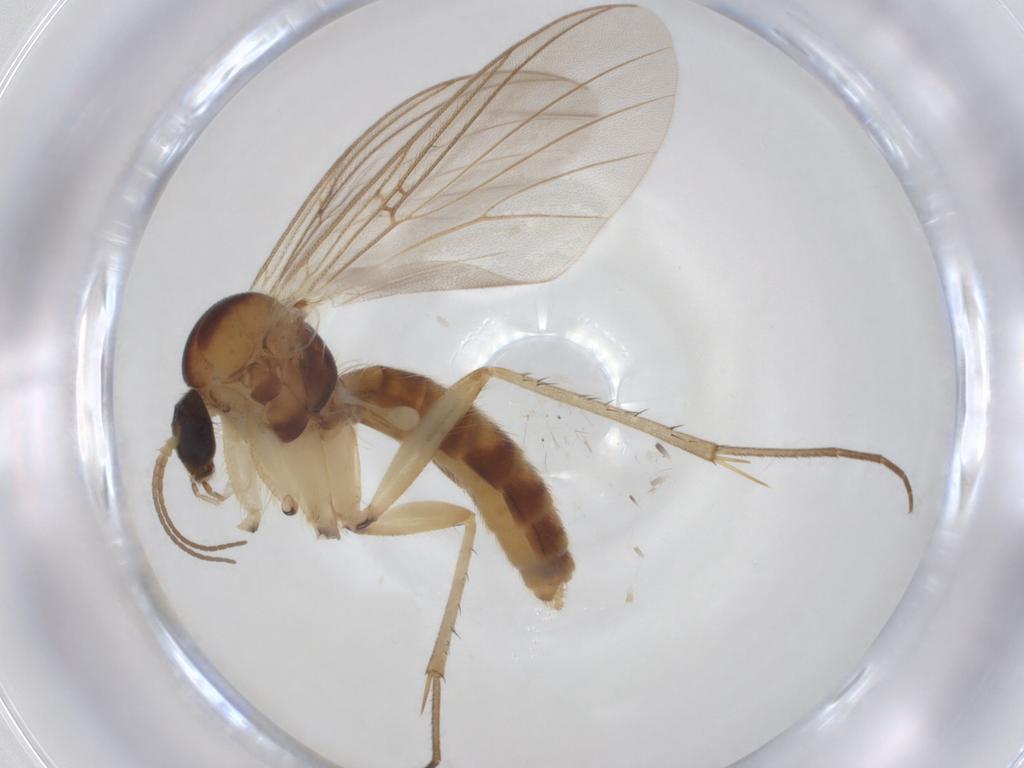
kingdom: Animalia
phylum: Arthropoda
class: Insecta
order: Diptera
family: Mycetophilidae
